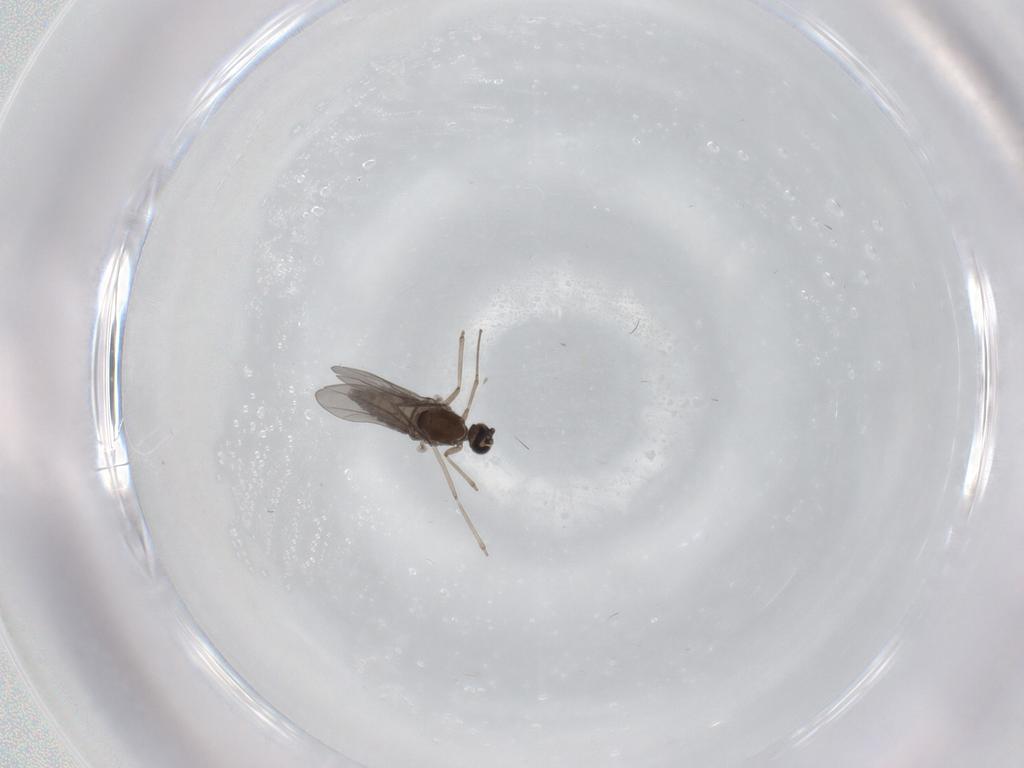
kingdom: Animalia
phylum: Arthropoda
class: Insecta
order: Diptera
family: Cecidomyiidae
